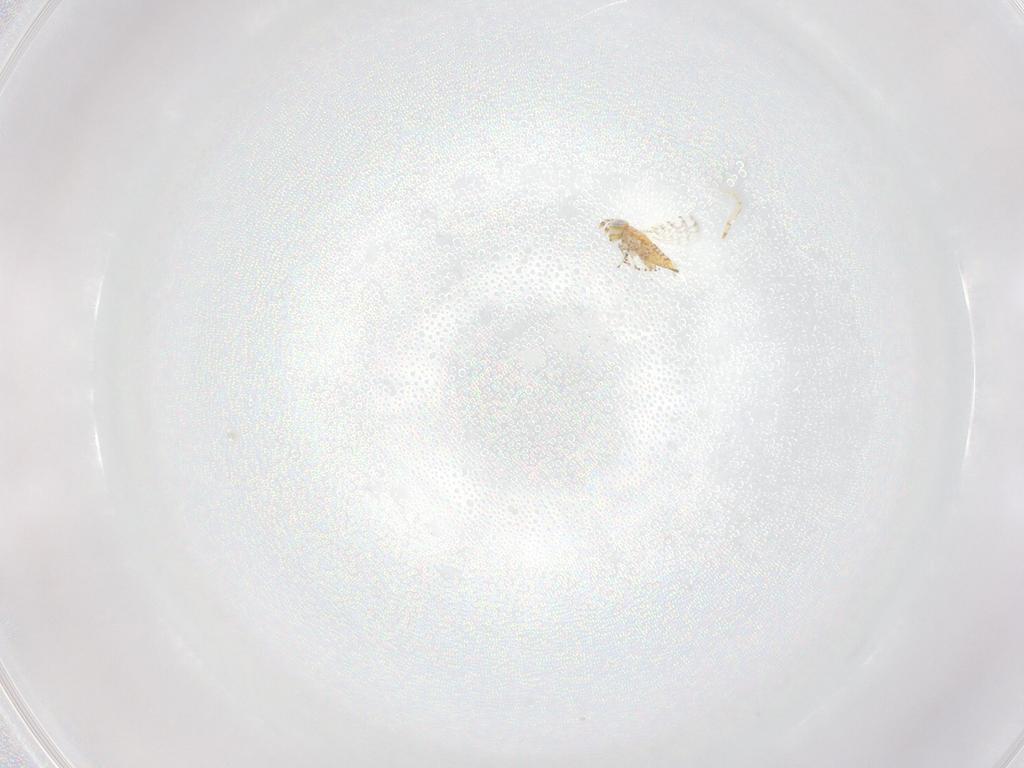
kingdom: Animalia
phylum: Arthropoda
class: Insecta
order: Hymenoptera
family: Aphelinidae
